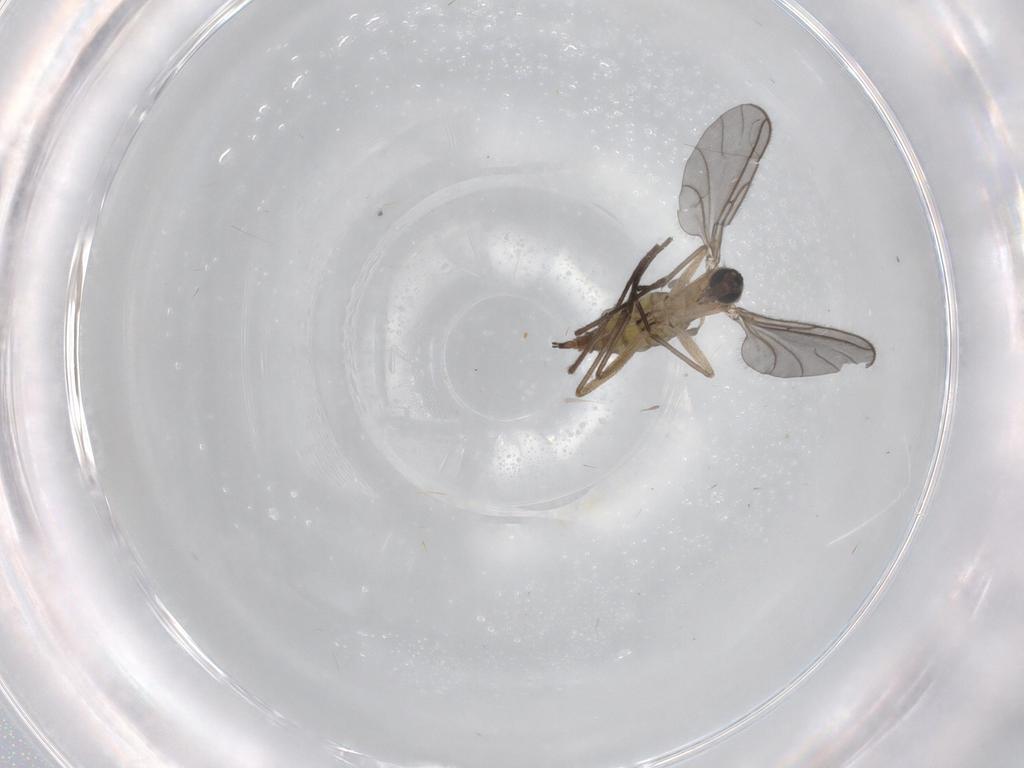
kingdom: Animalia
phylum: Arthropoda
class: Insecta
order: Diptera
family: Sciaridae
